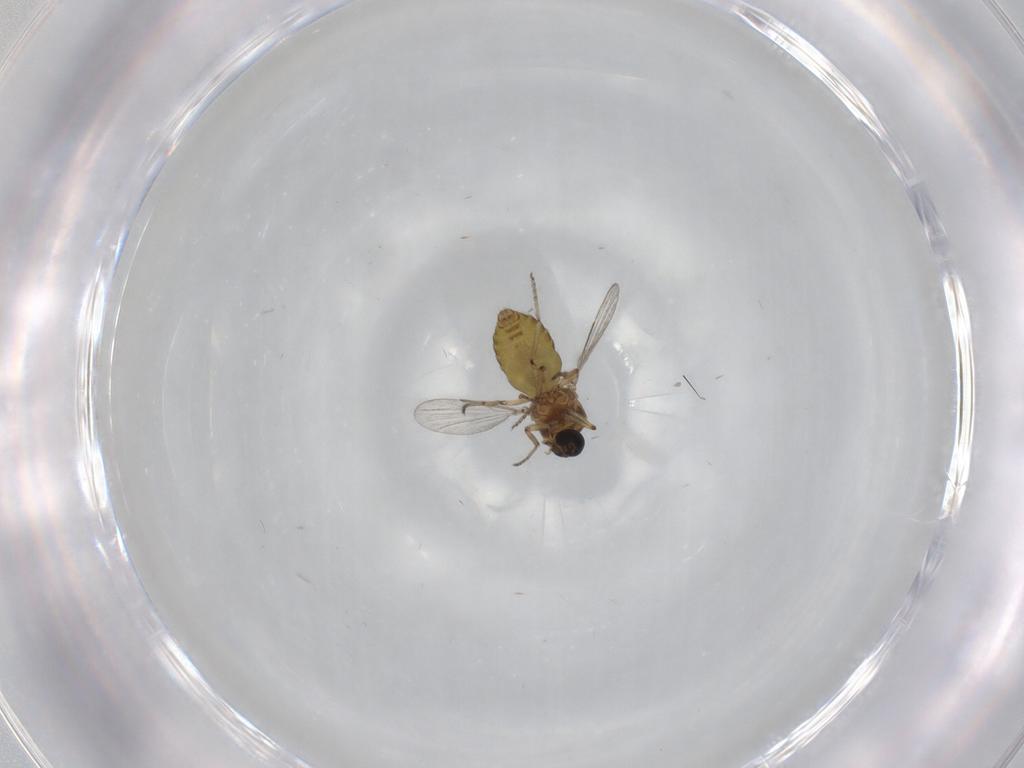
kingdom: Animalia
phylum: Arthropoda
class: Insecta
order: Diptera
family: Ceratopogonidae
